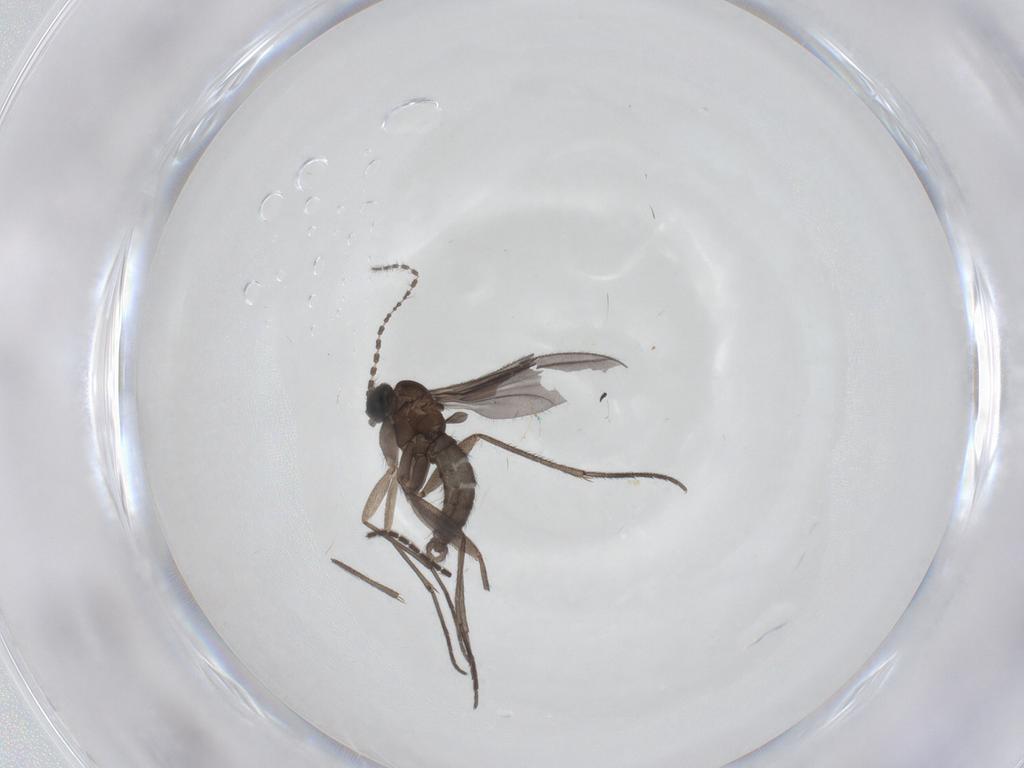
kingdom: Animalia
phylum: Arthropoda
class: Insecta
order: Diptera
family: Sciaridae
